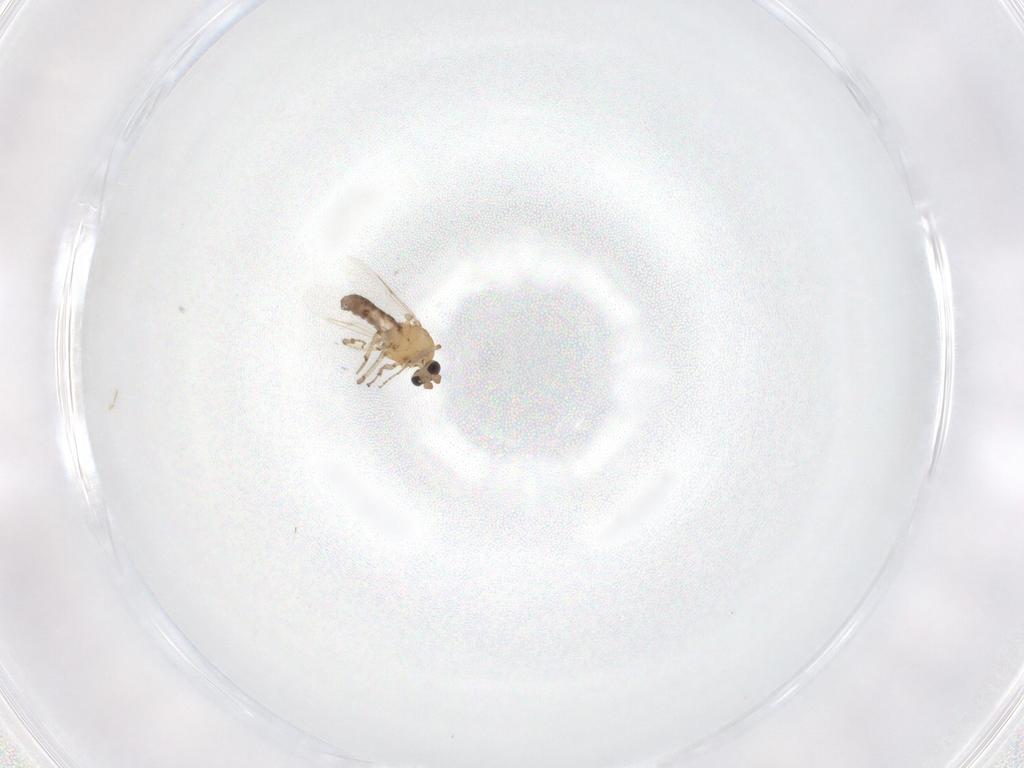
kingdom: Animalia
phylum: Arthropoda
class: Insecta
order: Diptera
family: Ceratopogonidae
